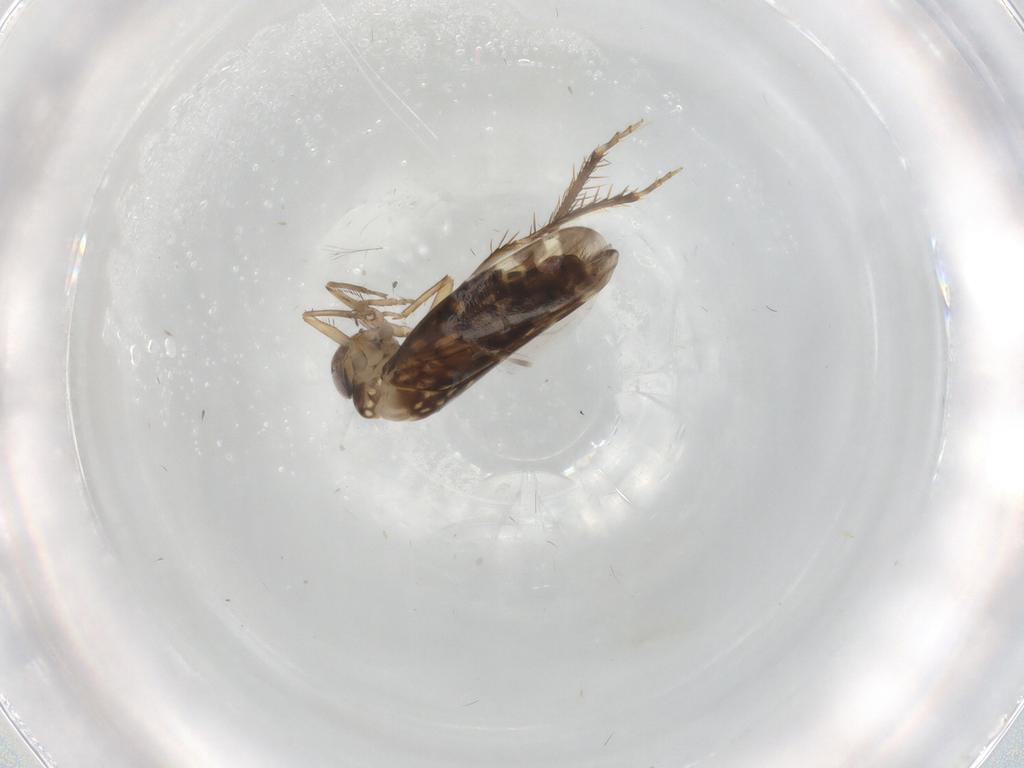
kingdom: Animalia
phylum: Arthropoda
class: Insecta
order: Hemiptera
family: Cicadellidae
